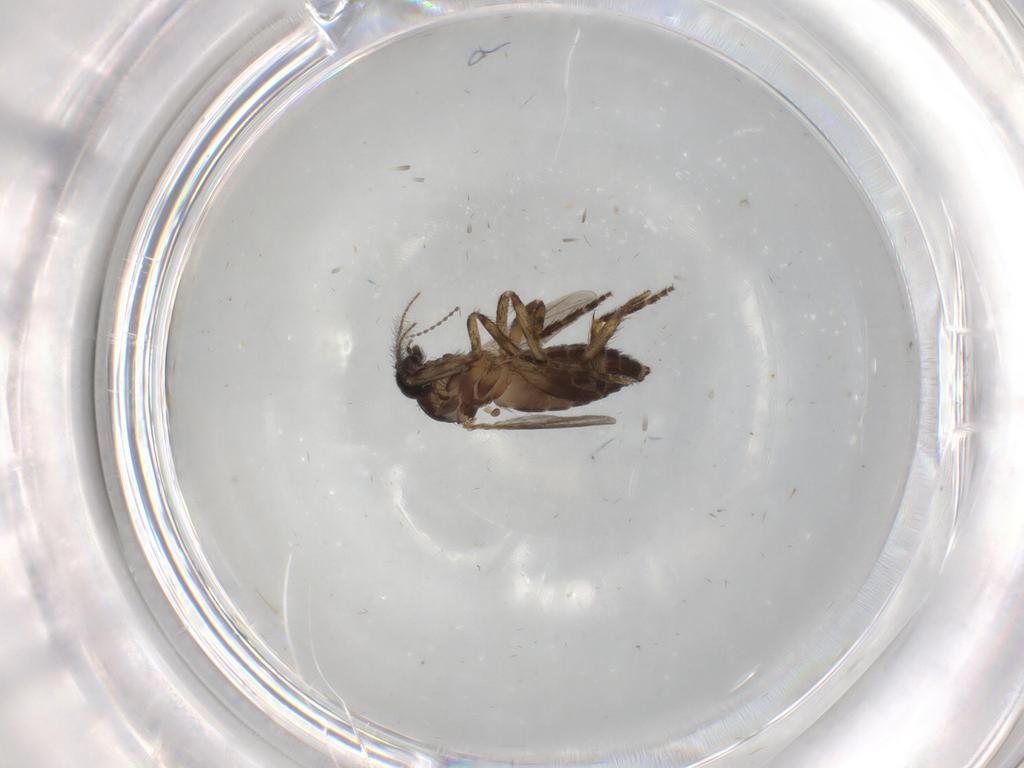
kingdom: Animalia
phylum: Arthropoda
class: Insecta
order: Diptera
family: Ceratopogonidae
